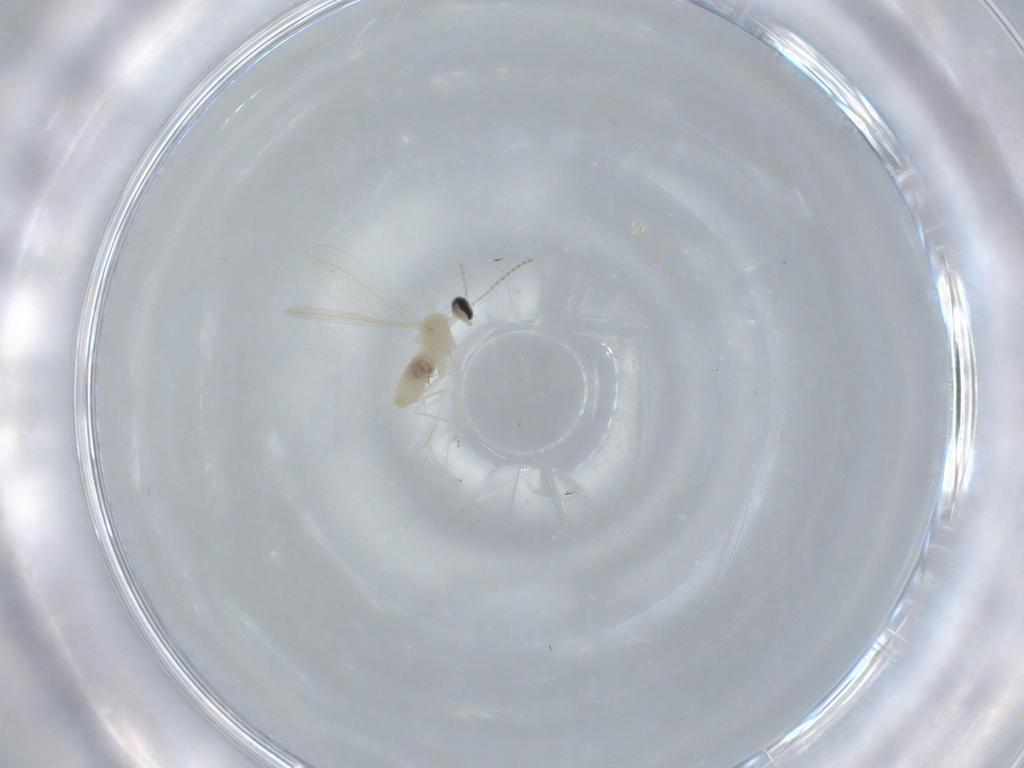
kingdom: Animalia
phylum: Arthropoda
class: Insecta
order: Diptera
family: Cecidomyiidae
